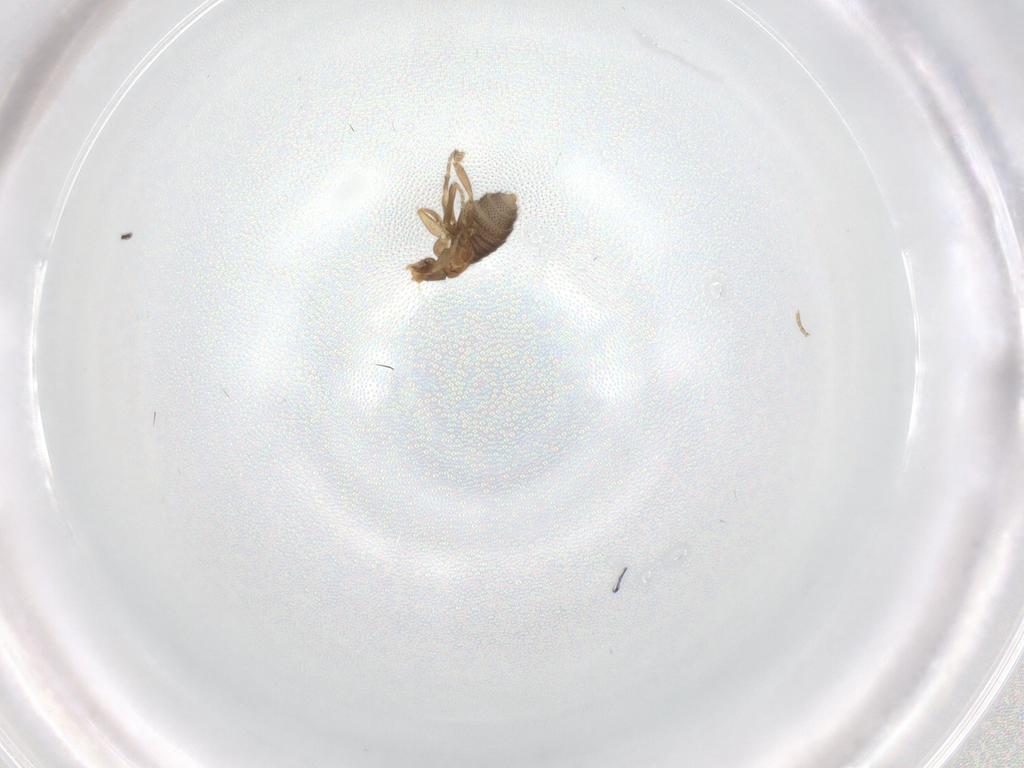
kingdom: Animalia
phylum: Arthropoda
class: Insecta
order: Diptera
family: Phoridae
